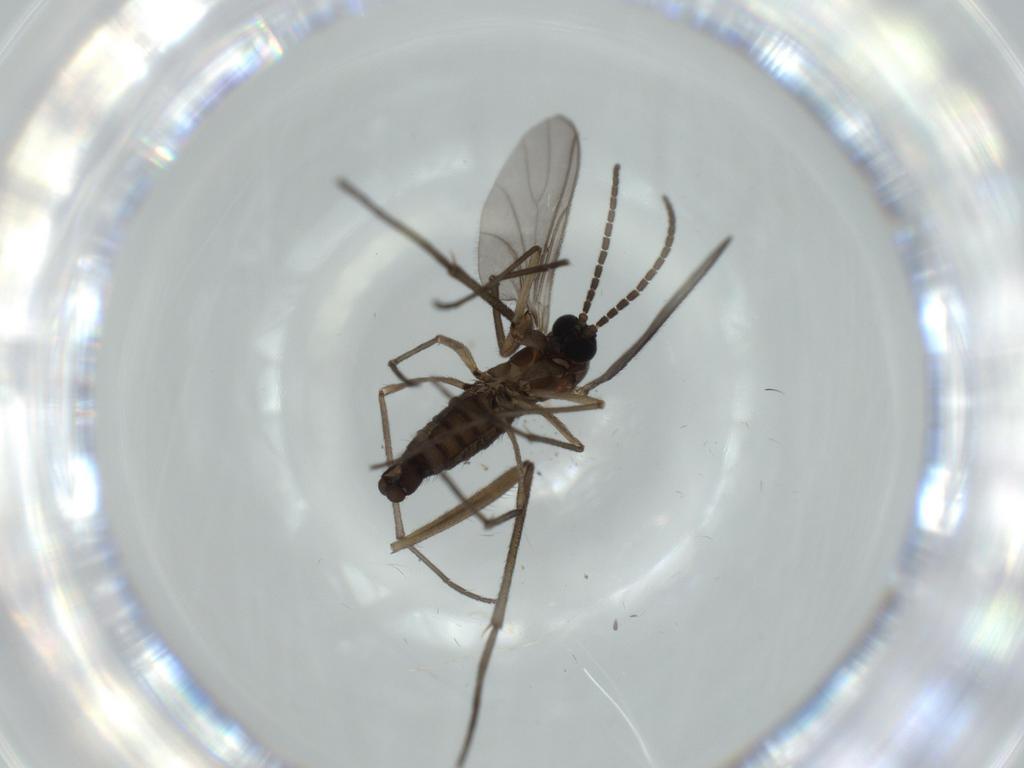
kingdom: Animalia
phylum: Arthropoda
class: Insecta
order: Diptera
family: Sciaridae
